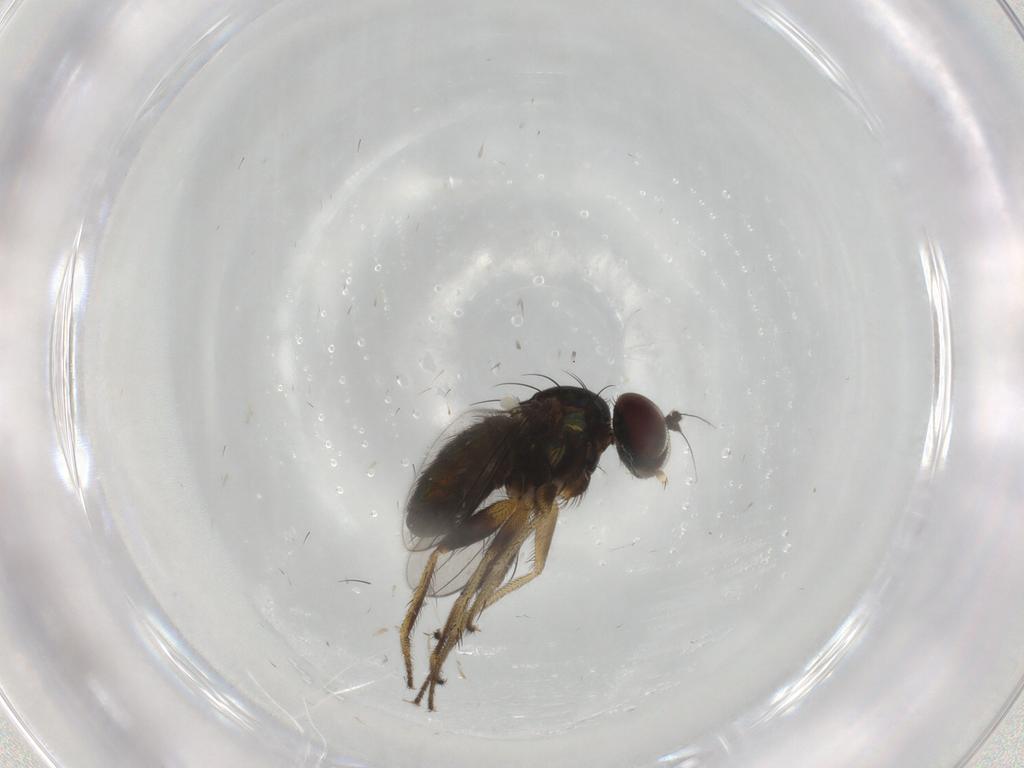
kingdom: Animalia
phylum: Arthropoda
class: Insecta
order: Diptera
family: Dolichopodidae
